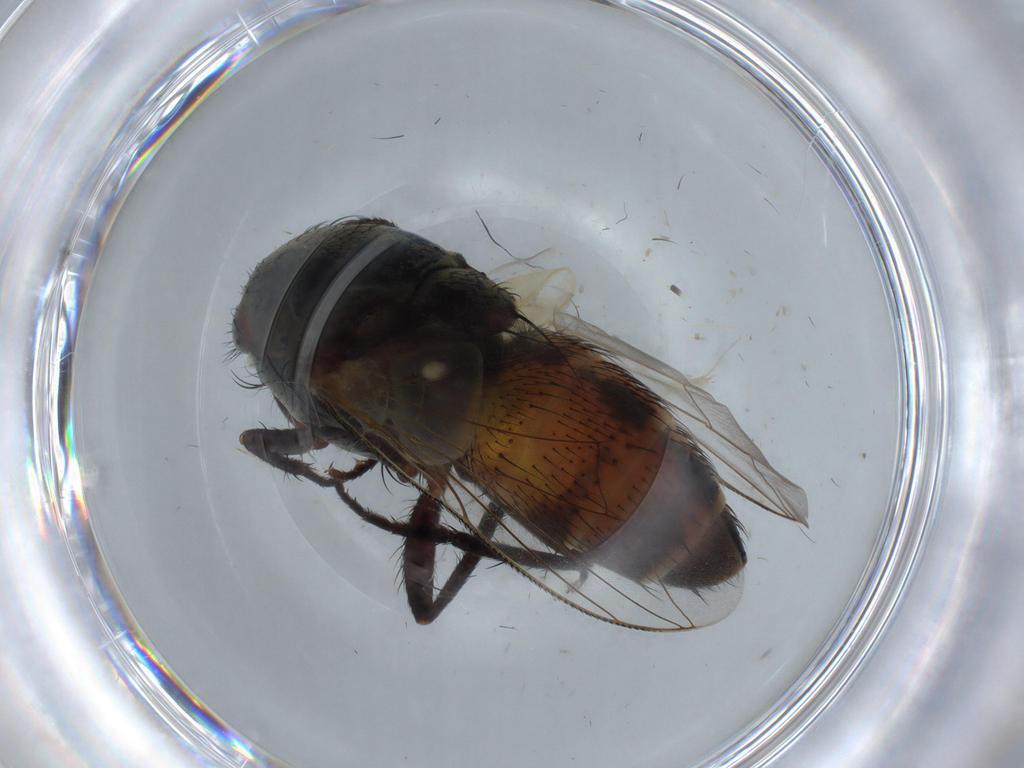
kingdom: Animalia
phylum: Arthropoda
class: Insecta
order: Diptera
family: Sarcophagidae
